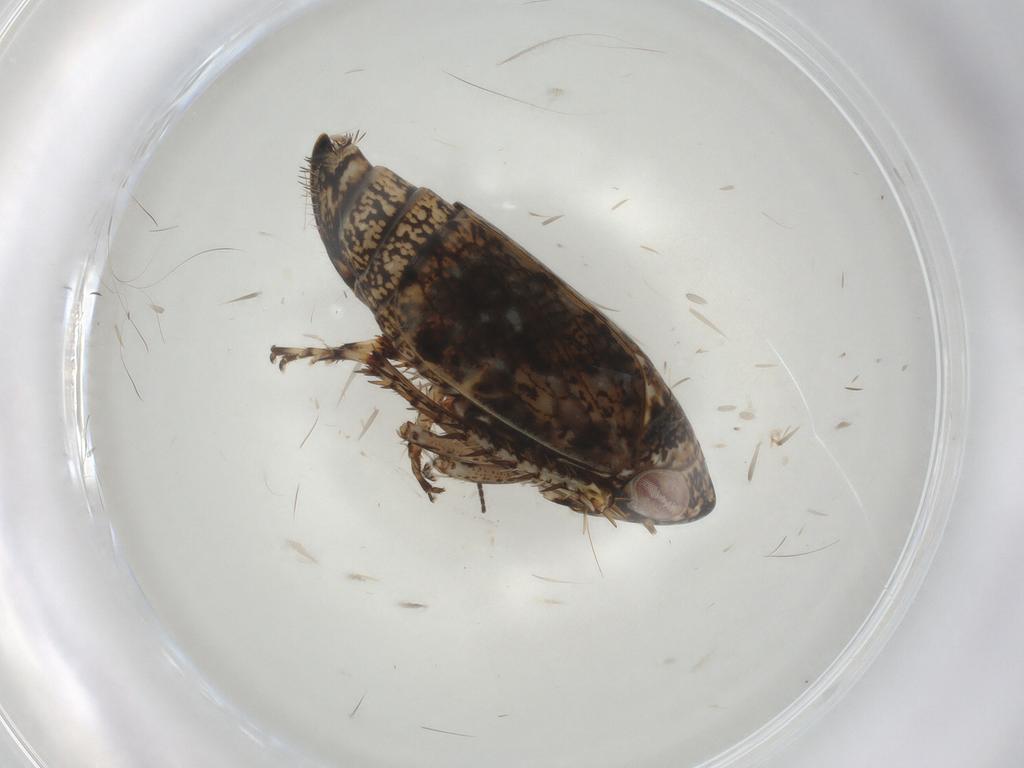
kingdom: Animalia
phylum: Arthropoda
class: Insecta
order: Hemiptera
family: Cicadellidae
